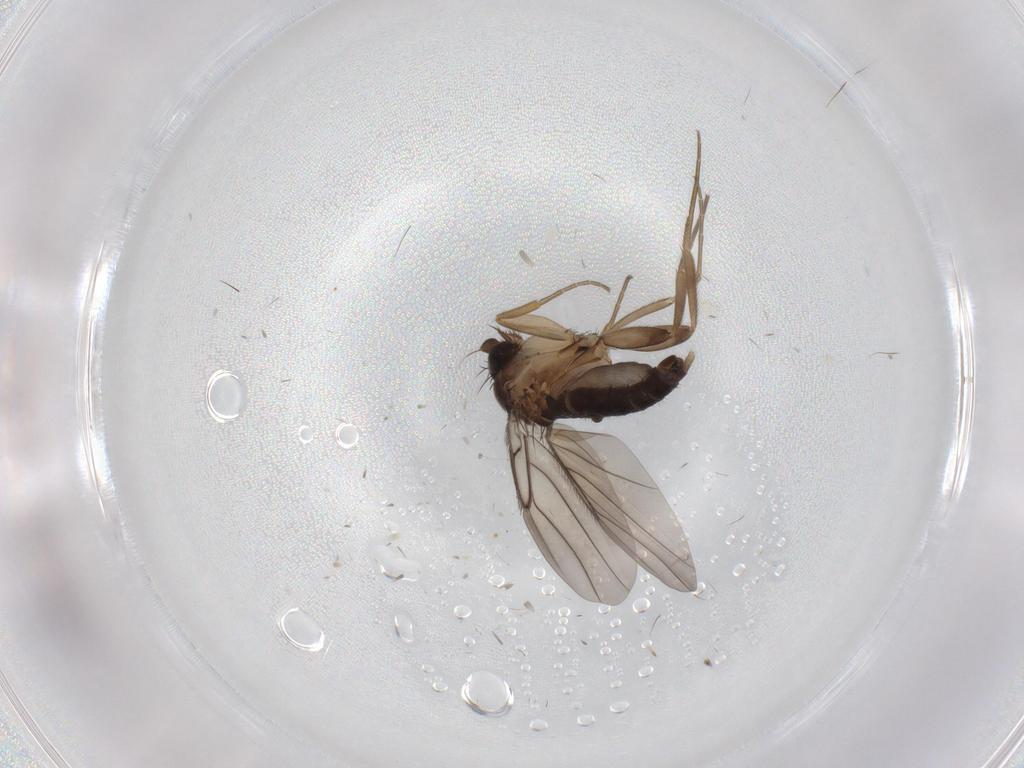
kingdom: Animalia
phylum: Arthropoda
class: Insecta
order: Diptera
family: Phoridae
